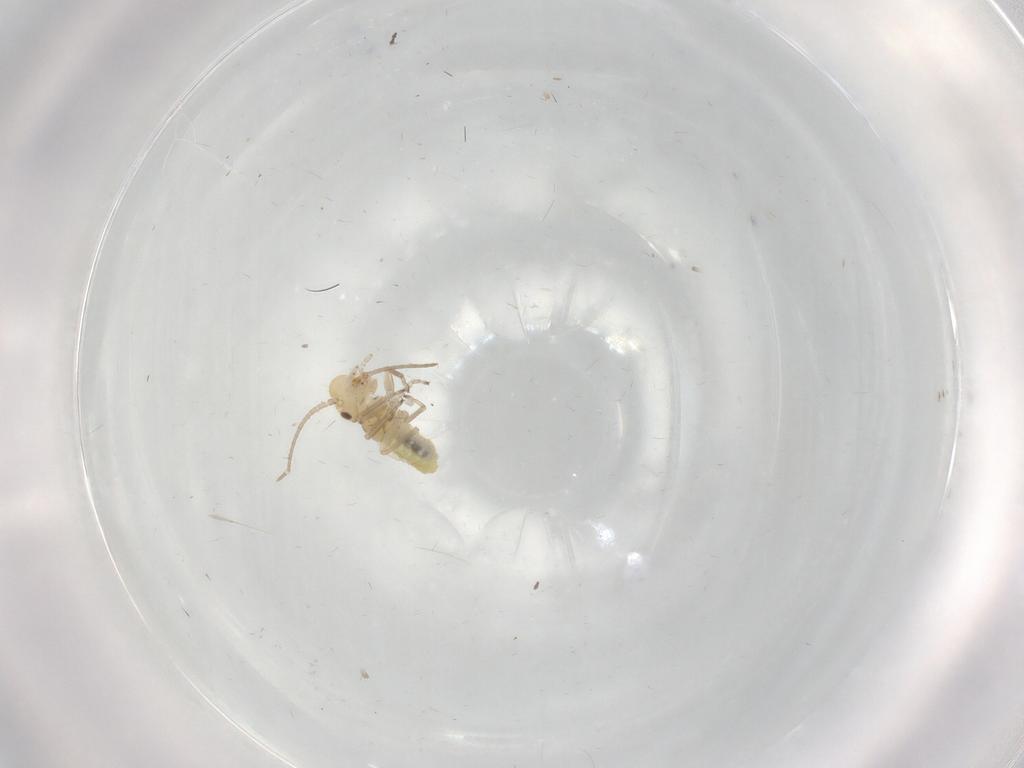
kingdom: Animalia
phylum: Arthropoda
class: Insecta
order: Psocodea
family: Caeciliusidae
